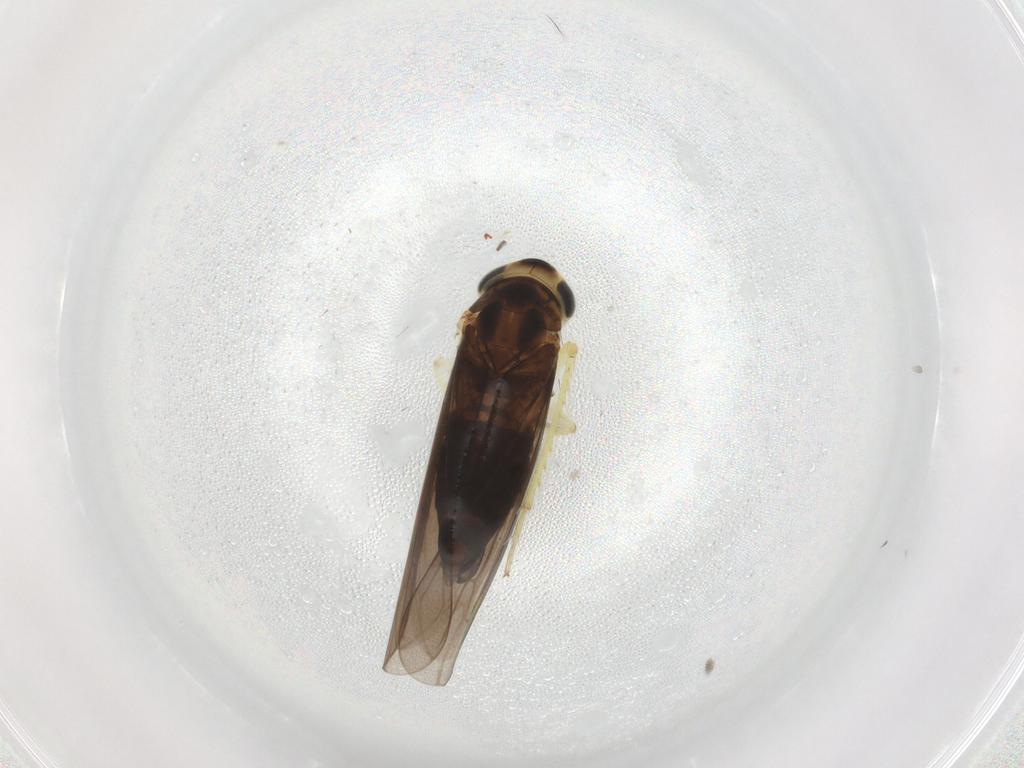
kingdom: Animalia
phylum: Arthropoda
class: Insecta
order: Hemiptera
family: Cicadellidae
